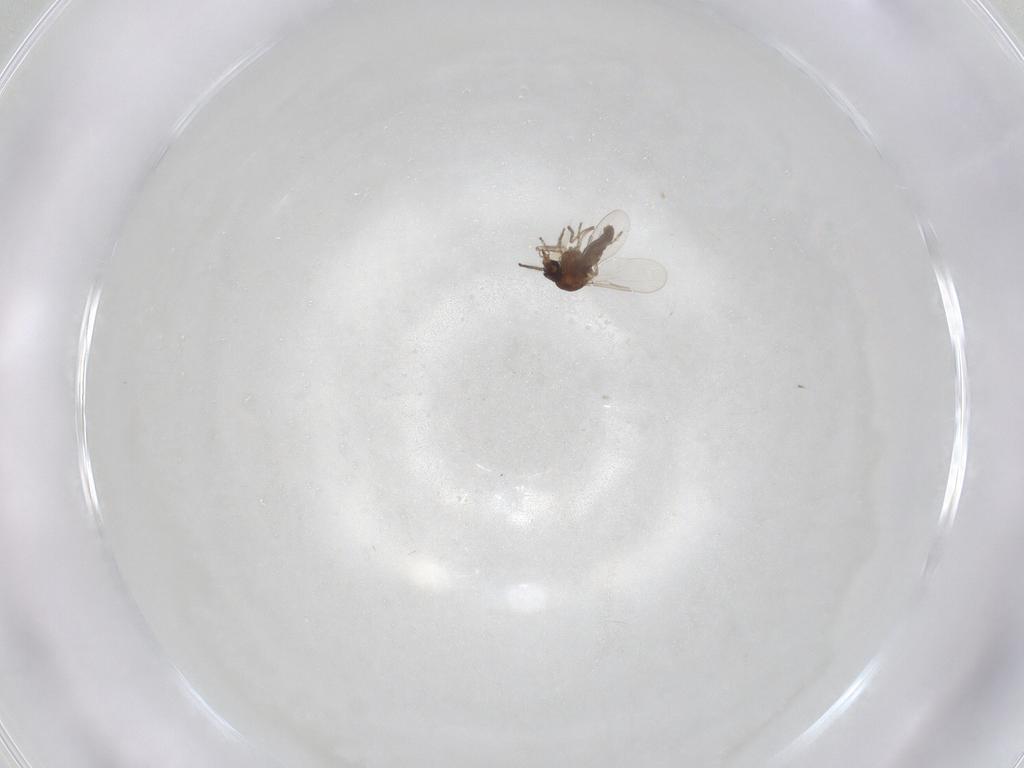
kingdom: Animalia
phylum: Arthropoda
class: Insecta
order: Diptera
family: Ceratopogonidae
